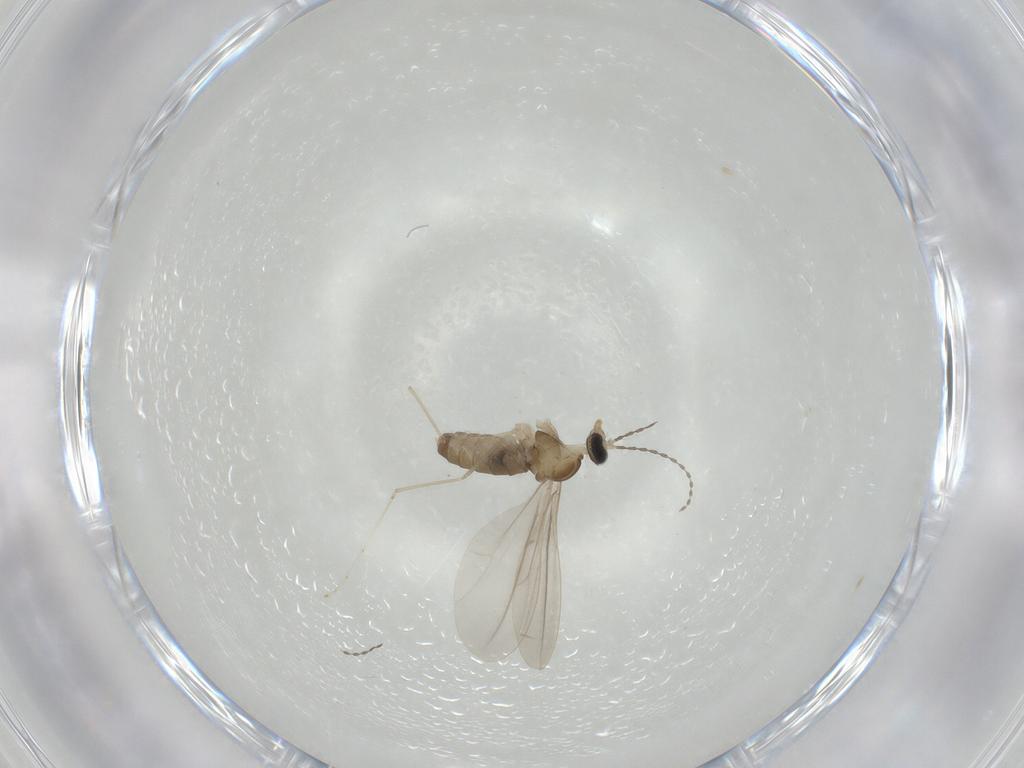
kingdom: Animalia
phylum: Arthropoda
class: Insecta
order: Diptera
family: Cecidomyiidae
